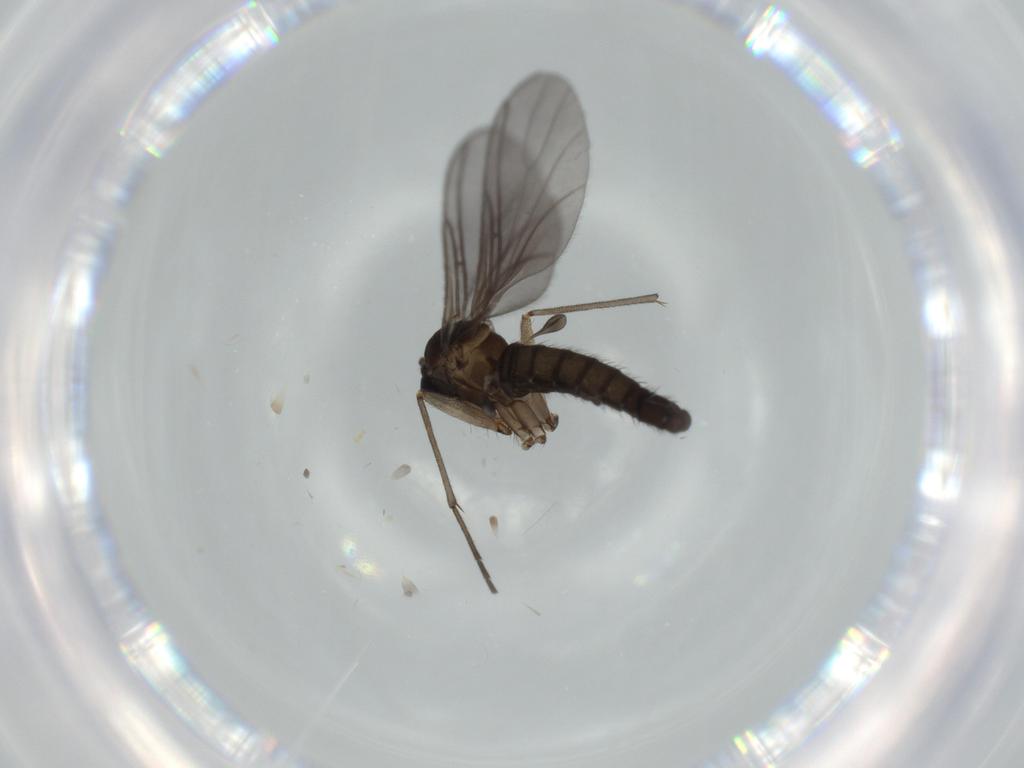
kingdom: Animalia
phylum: Arthropoda
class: Insecta
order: Diptera
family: Sciaridae
